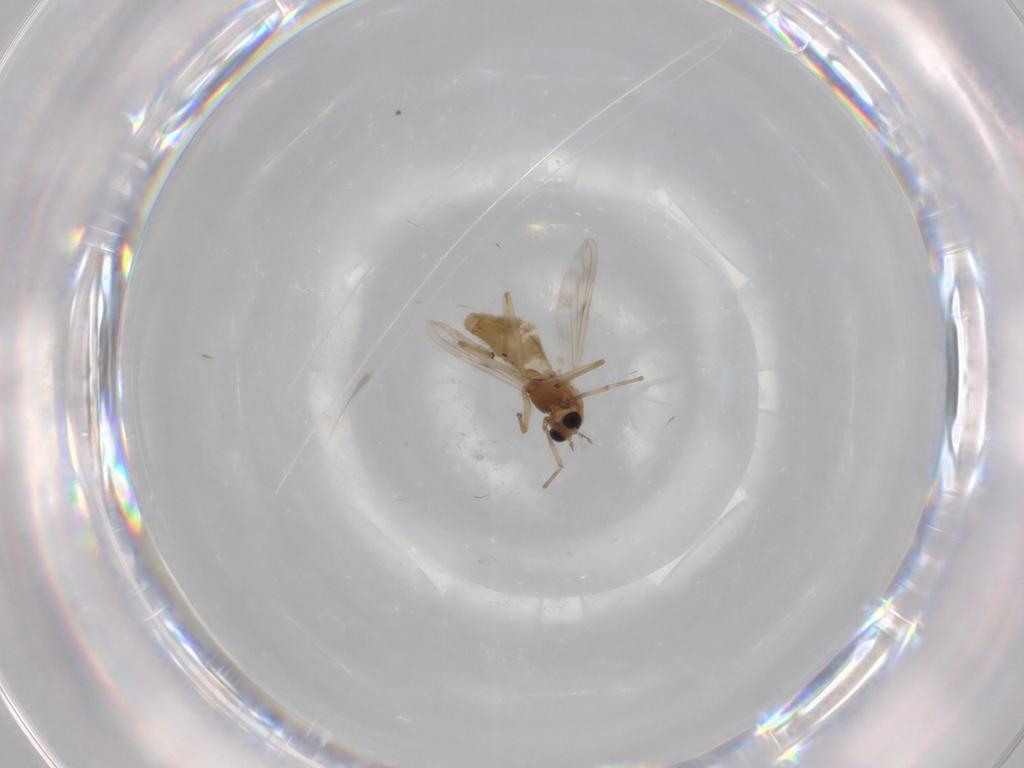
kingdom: Animalia
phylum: Arthropoda
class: Insecta
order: Diptera
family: Chironomidae
